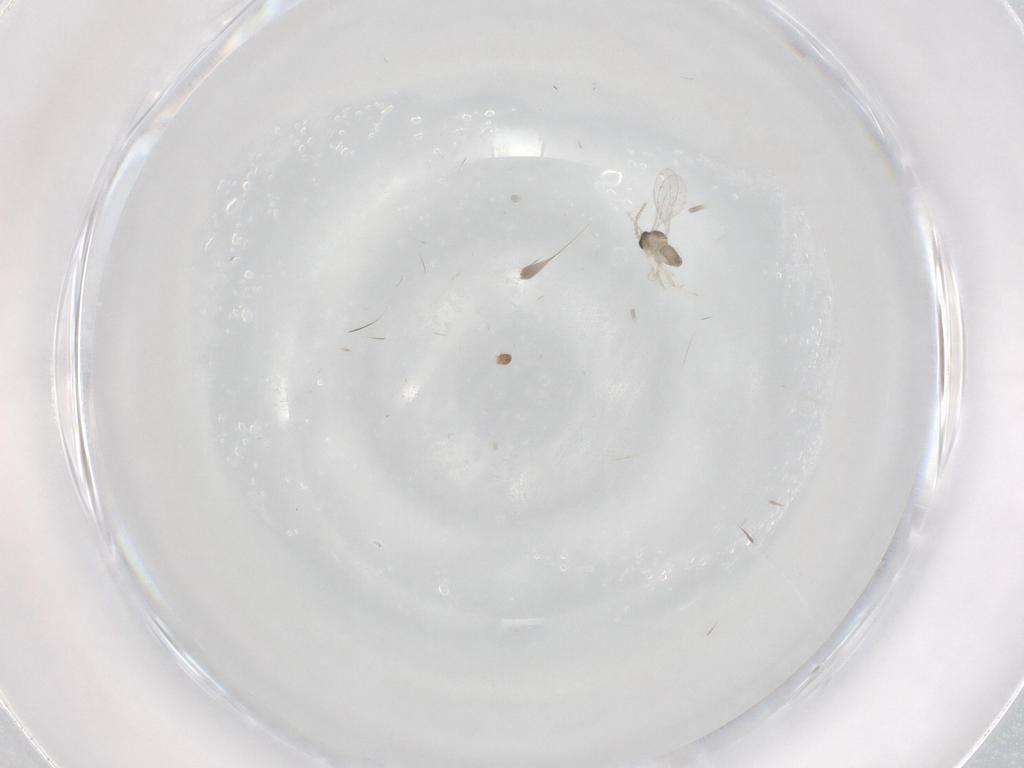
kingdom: Animalia
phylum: Arthropoda
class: Insecta
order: Diptera
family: Cecidomyiidae
